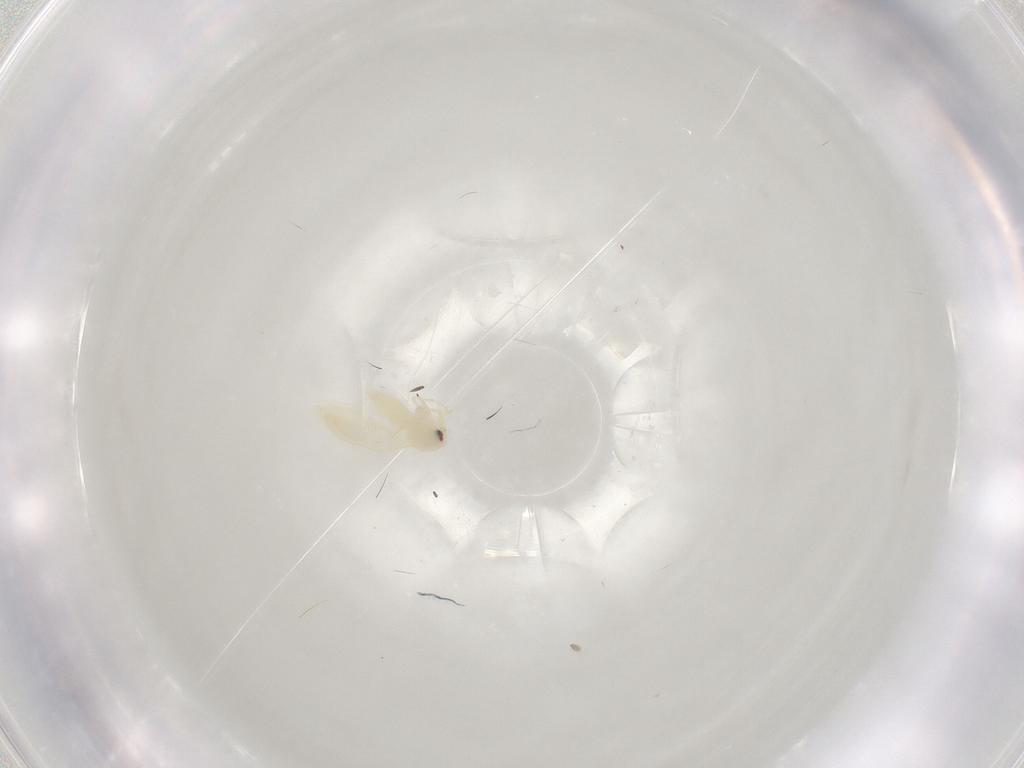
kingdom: Animalia
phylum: Arthropoda
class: Insecta
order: Hemiptera
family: Aleyrodidae
